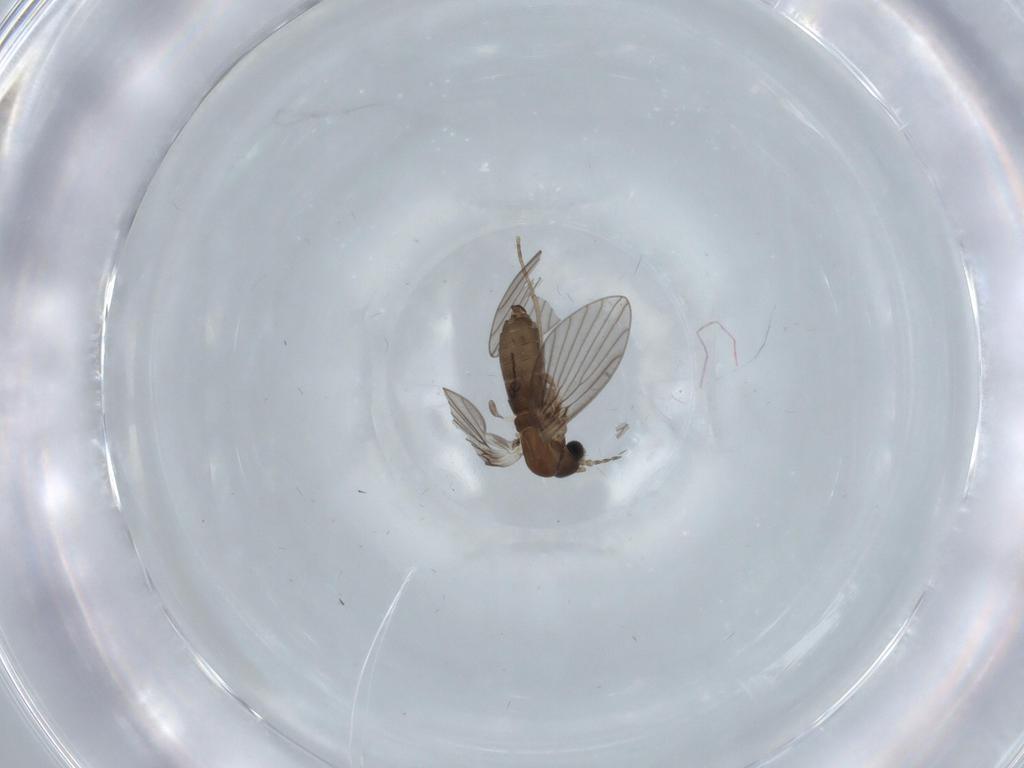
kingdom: Animalia
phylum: Arthropoda
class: Insecta
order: Diptera
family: Psychodidae
